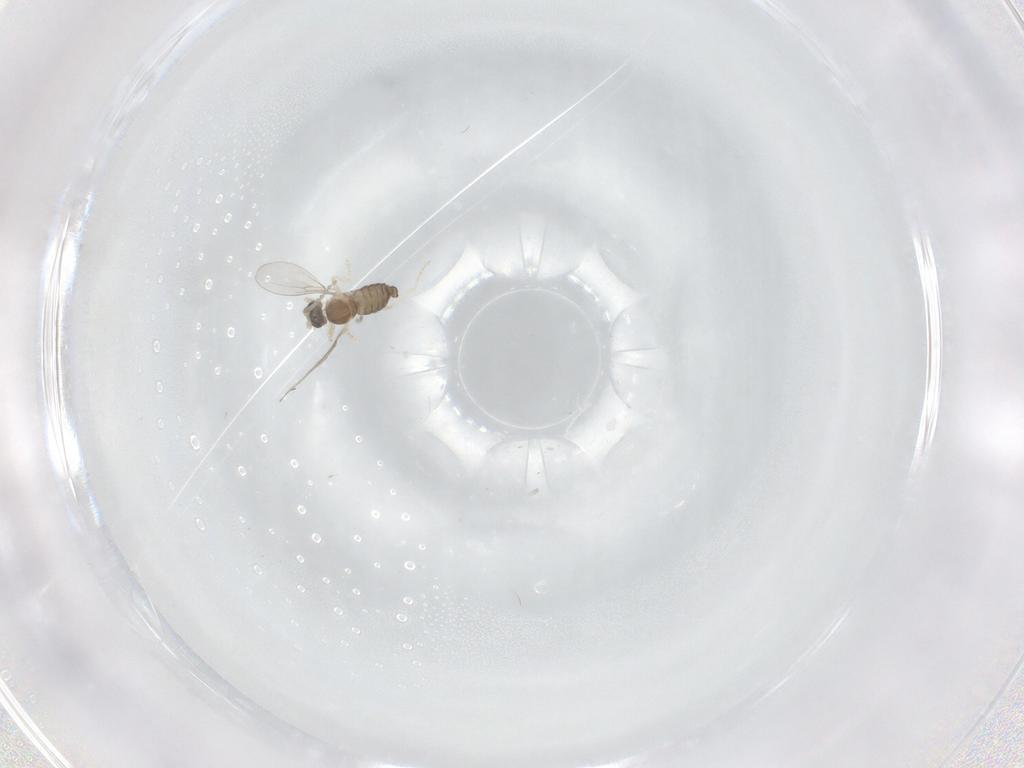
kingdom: Animalia
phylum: Arthropoda
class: Insecta
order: Diptera
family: Cecidomyiidae
